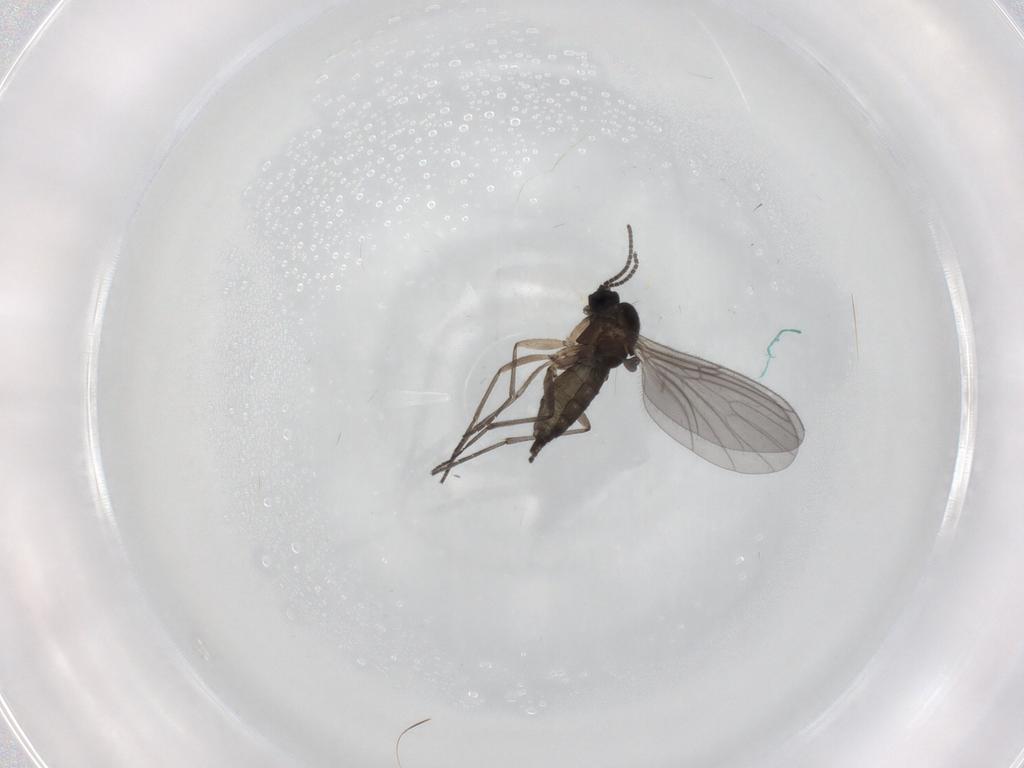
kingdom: Animalia
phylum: Arthropoda
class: Insecta
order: Diptera
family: Sciaridae
